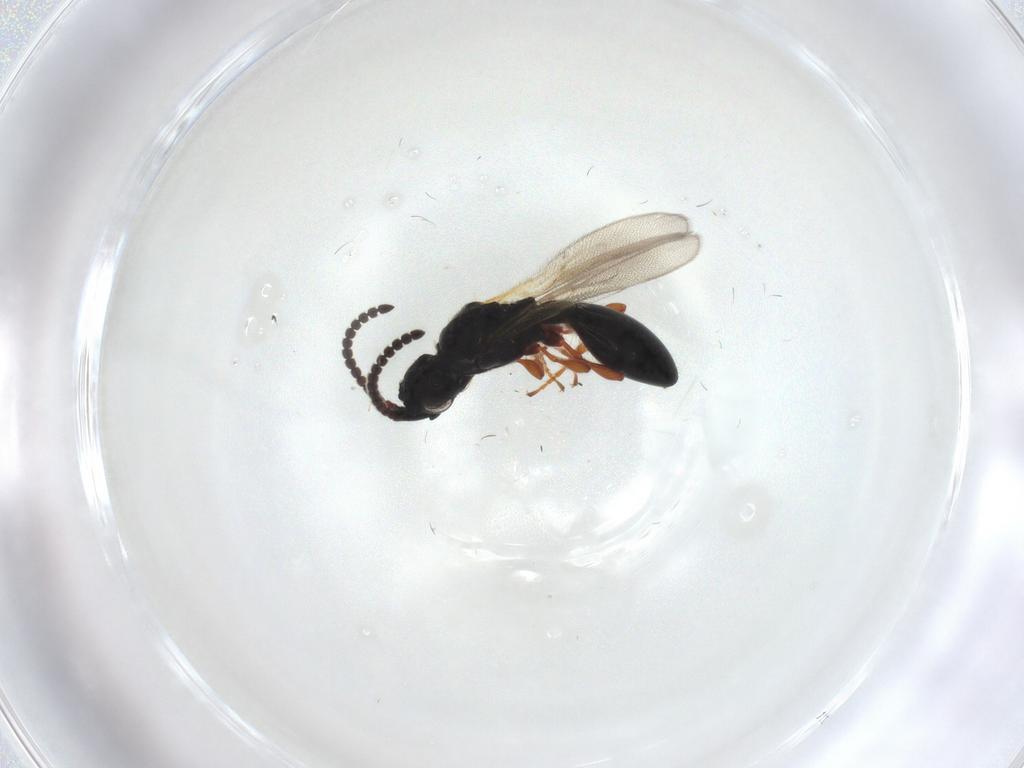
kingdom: Animalia
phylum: Arthropoda
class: Insecta
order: Hymenoptera
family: Diapriidae
